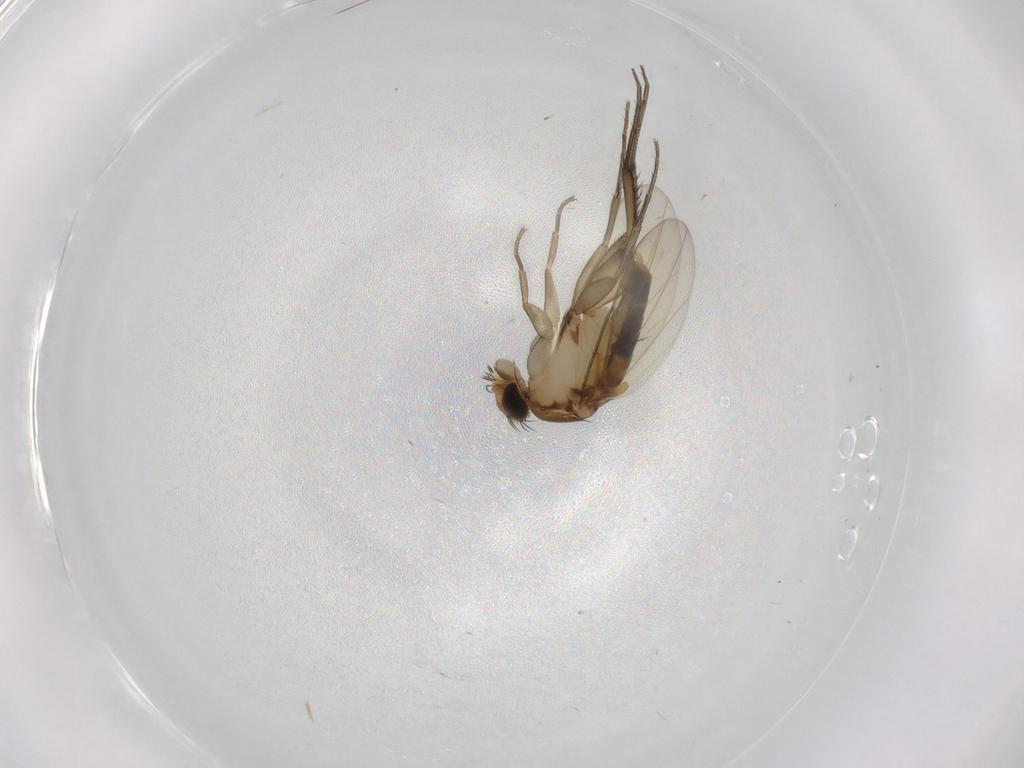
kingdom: Animalia
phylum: Arthropoda
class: Insecta
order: Diptera
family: Phoridae
